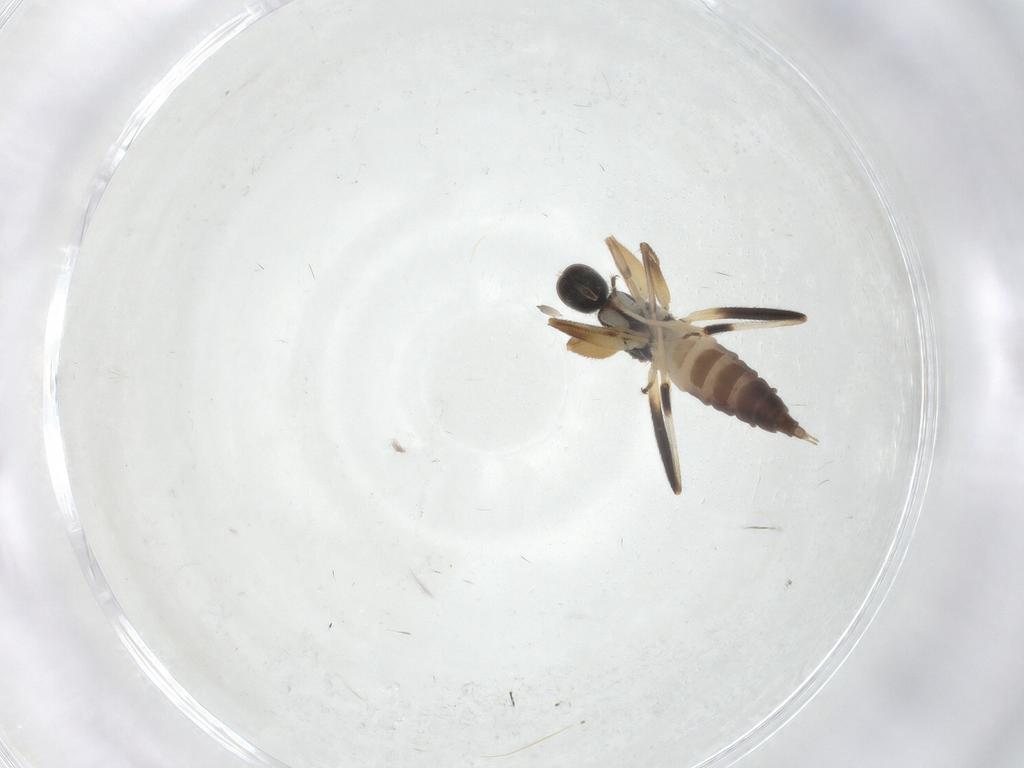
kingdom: Animalia
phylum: Arthropoda
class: Insecta
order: Diptera
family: Hybotidae
